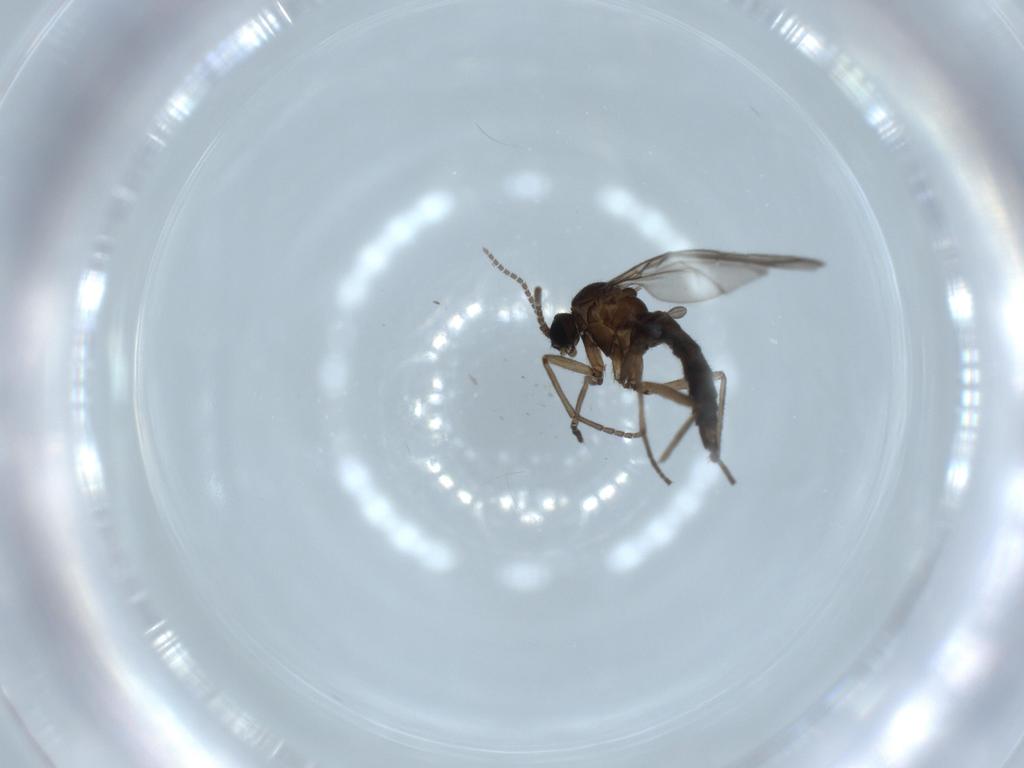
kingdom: Animalia
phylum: Arthropoda
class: Insecta
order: Diptera
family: Sciaridae
